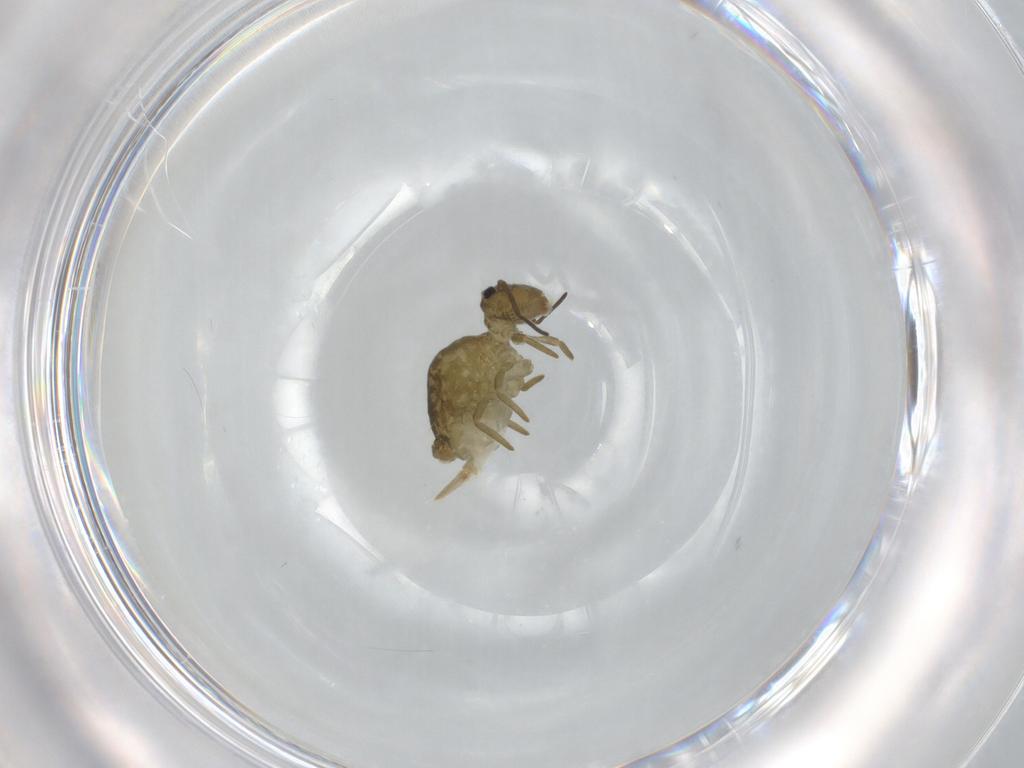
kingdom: Animalia
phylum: Arthropoda
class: Collembola
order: Symphypleona
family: Sminthuridae
